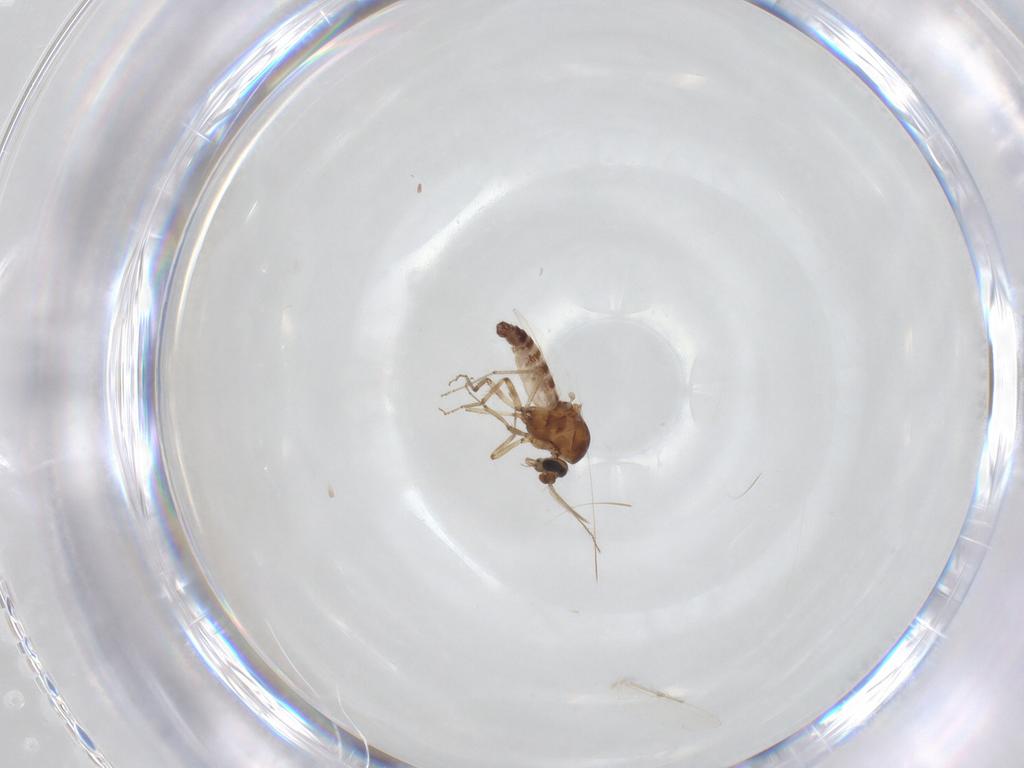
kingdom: Animalia
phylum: Arthropoda
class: Insecta
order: Diptera
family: Ceratopogonidae
